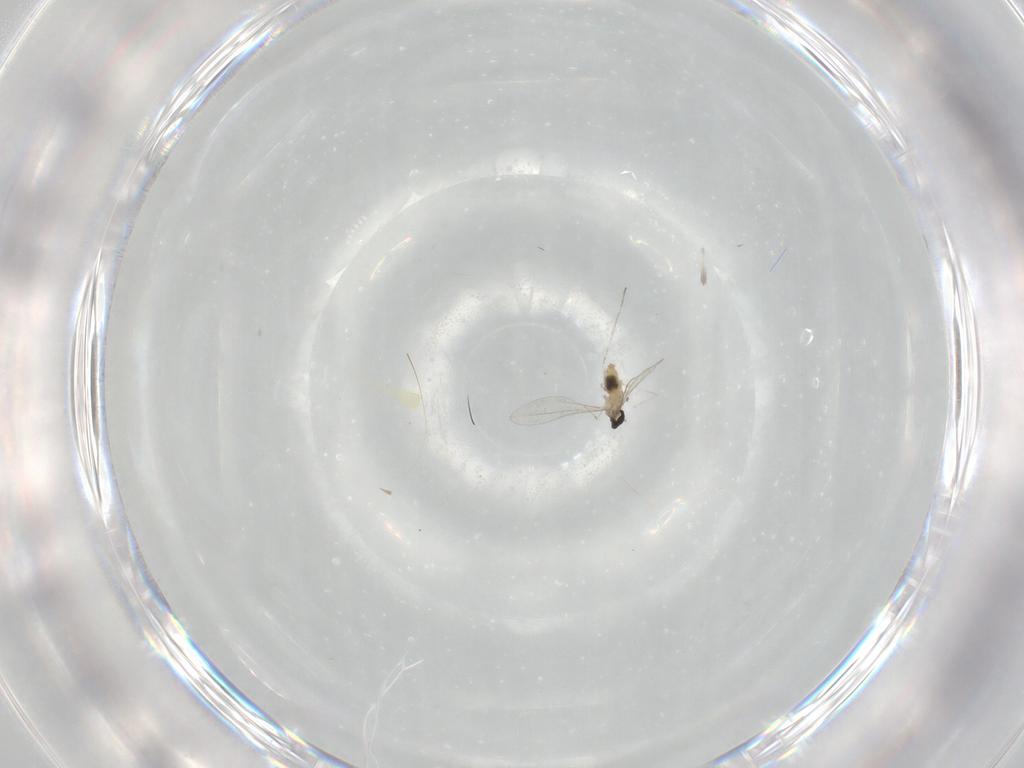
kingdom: Animalia
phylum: Arthropoda
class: Insecta
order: Diptera
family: Cecidomyiidae
